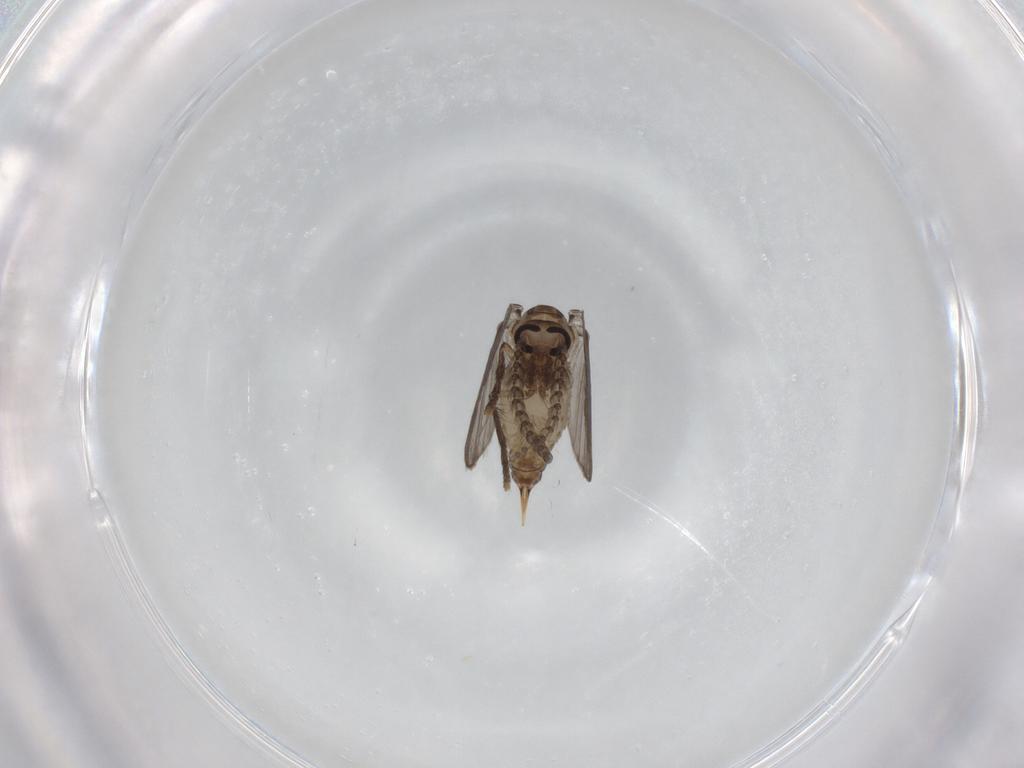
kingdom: Animalia
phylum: Arthropoda
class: Insecta
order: Diptera
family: Psychodidae
